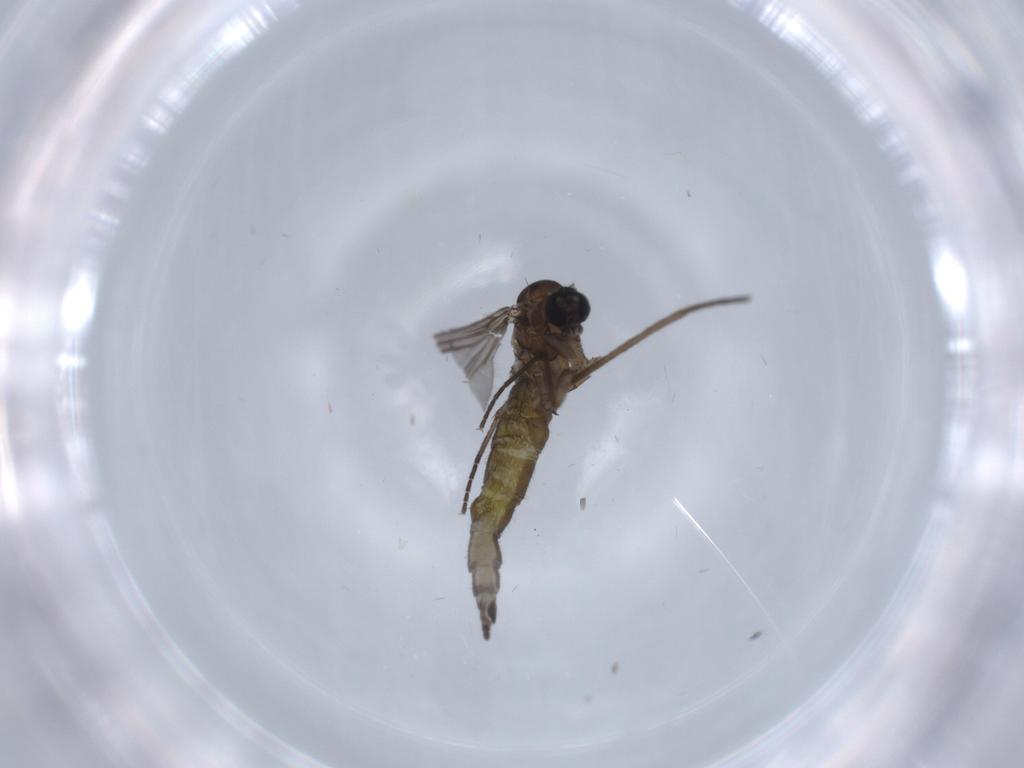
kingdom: Animalia
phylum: Arthropoda
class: Insecta
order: Diptera
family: Sciaridae
